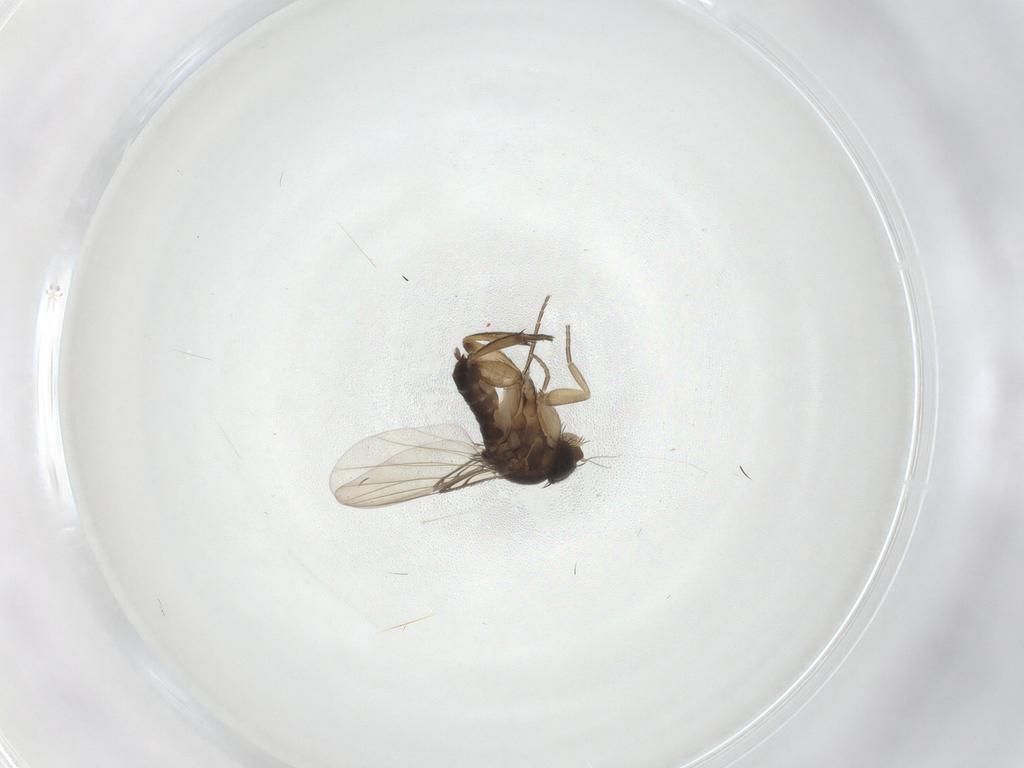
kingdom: Animalia
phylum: Arthropoda
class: Insecta
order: Diptera
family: Phoridae
